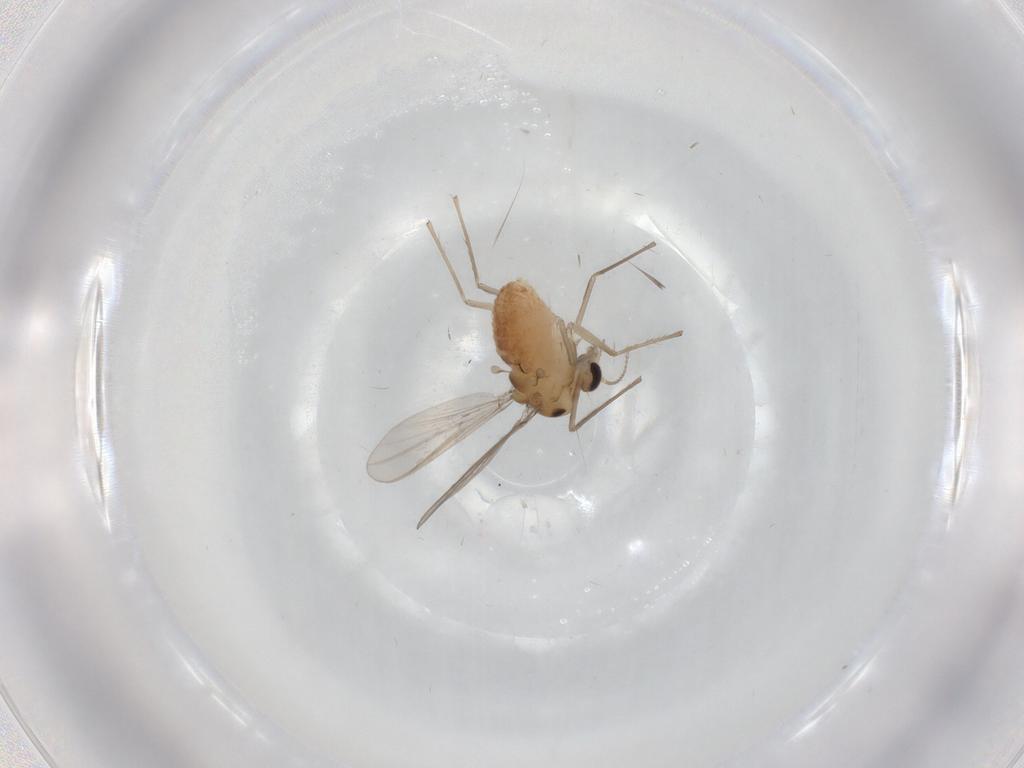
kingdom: Animalia
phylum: Arthropoda
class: Insecta
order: Diptera
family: Chironomidae
